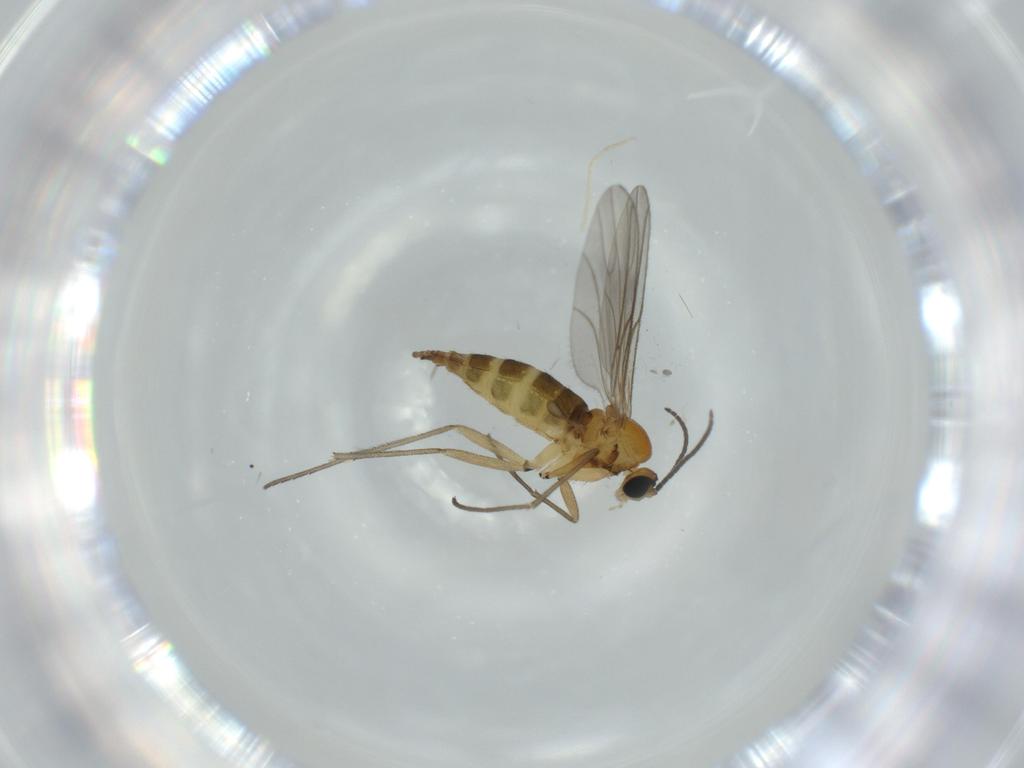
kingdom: Animalia
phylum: Arthropoda
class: Insecta
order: Diptera
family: Sciaridae
